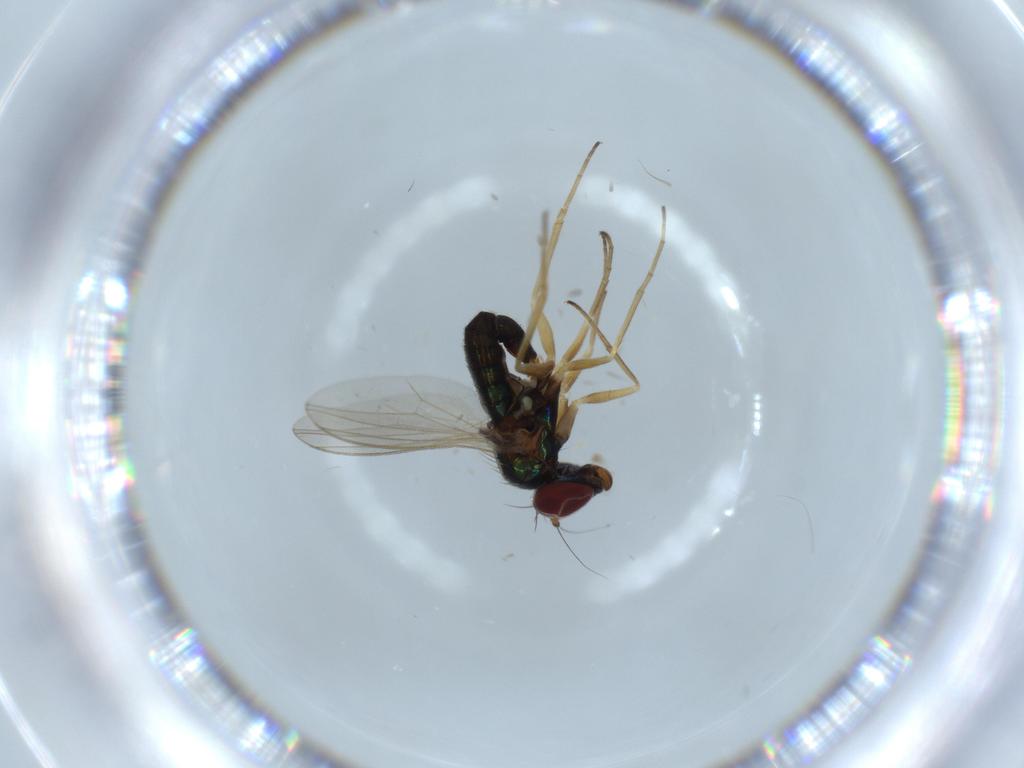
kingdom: Animalia
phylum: Arthropoda
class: Insecta
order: Diptera
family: Dolichopodidae
